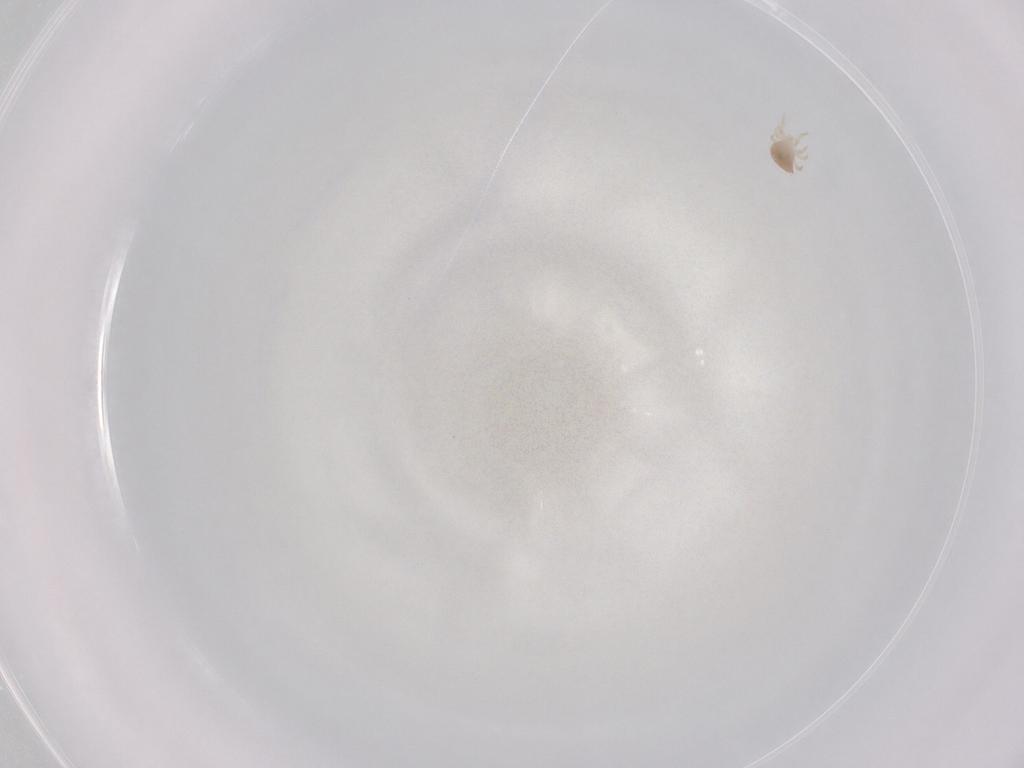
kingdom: Animalia
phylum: Arthropoda
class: Arachnida
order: Mesostigmata
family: Zerconidae
